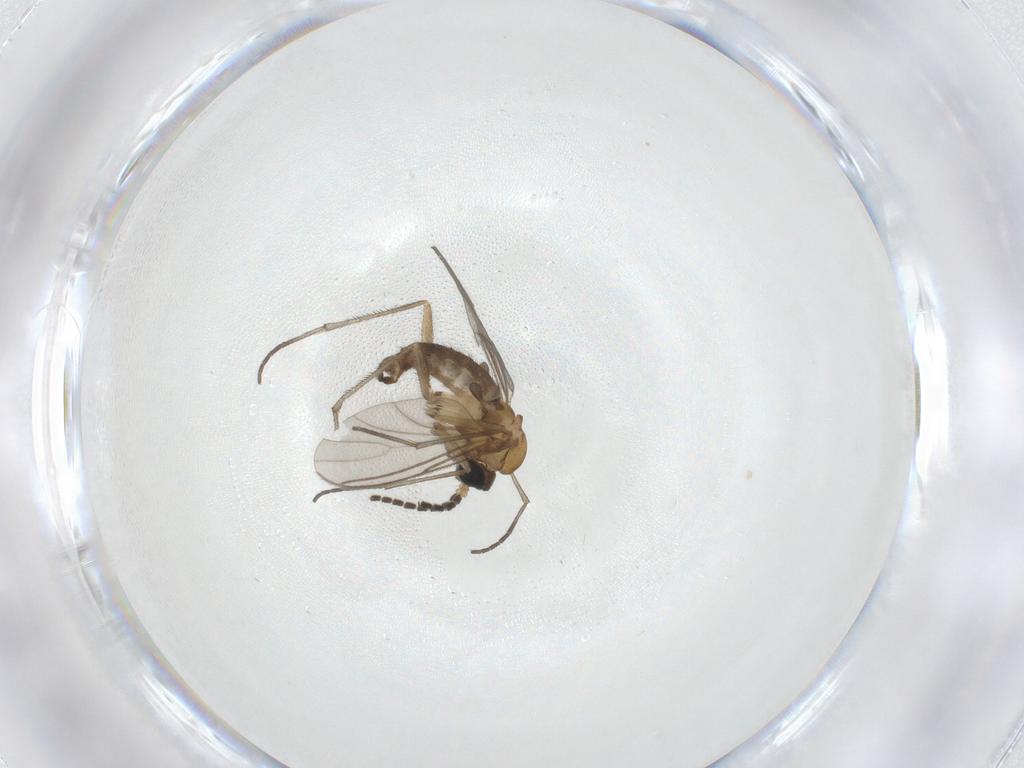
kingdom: Animalia
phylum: Arthropoda
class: Insecta
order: Diptera
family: Sciaridae
